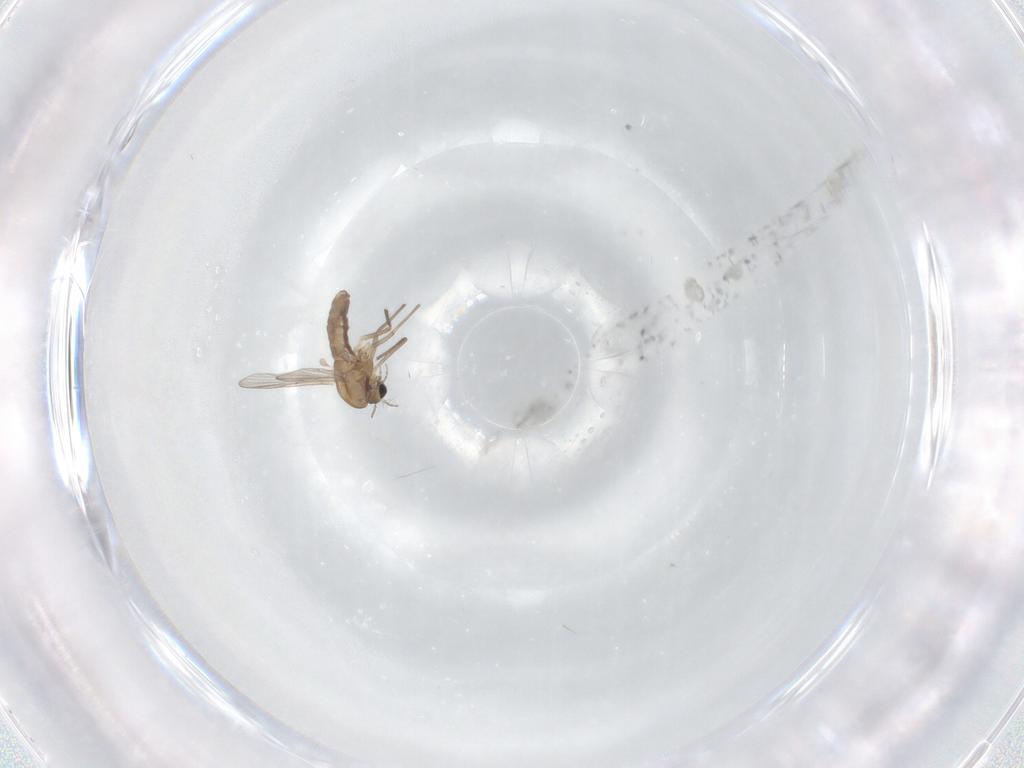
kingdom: Animalia
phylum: Arthropoda
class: Insecta
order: Diptera
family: Chironomidae
